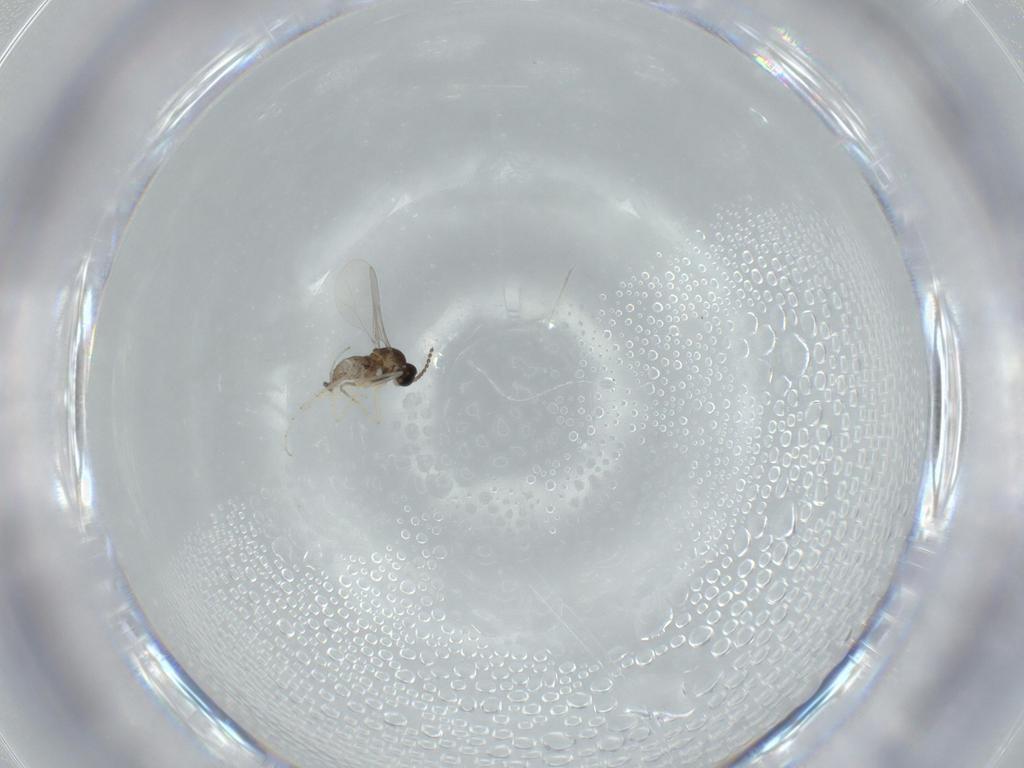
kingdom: Animalia
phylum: Arthropoda
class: Insecta
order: Diptera
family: Cecidomyiidae
